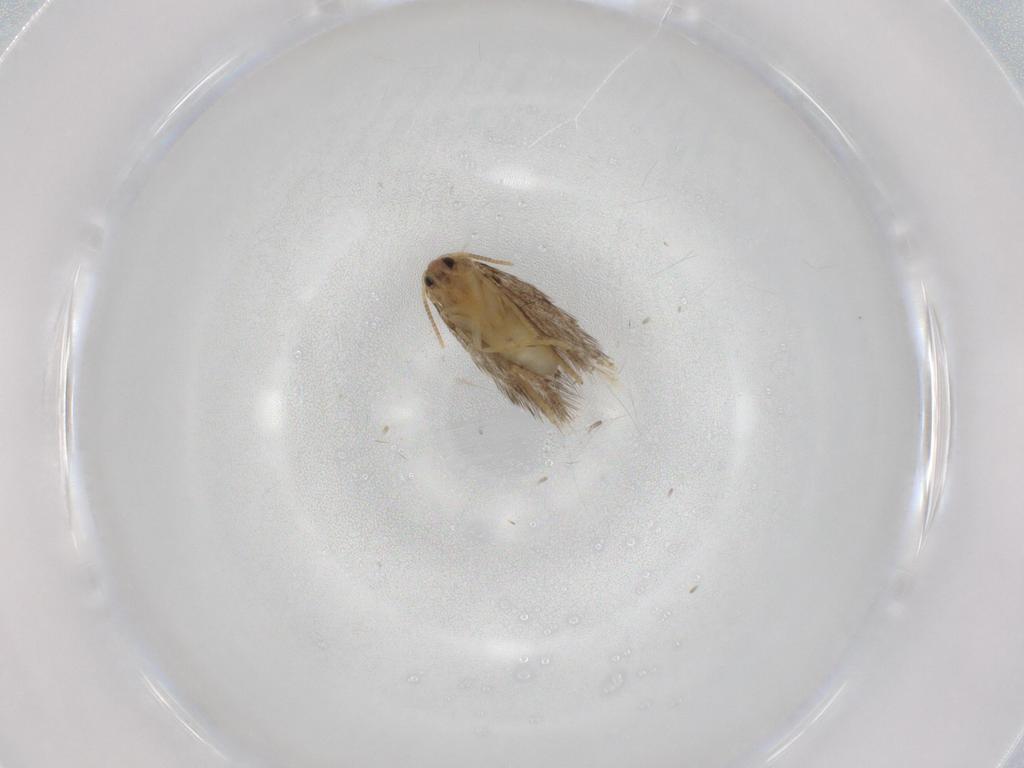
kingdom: Animalia
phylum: Arthropoda
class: Insecta
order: Lepidoptera
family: Copromorphidae
